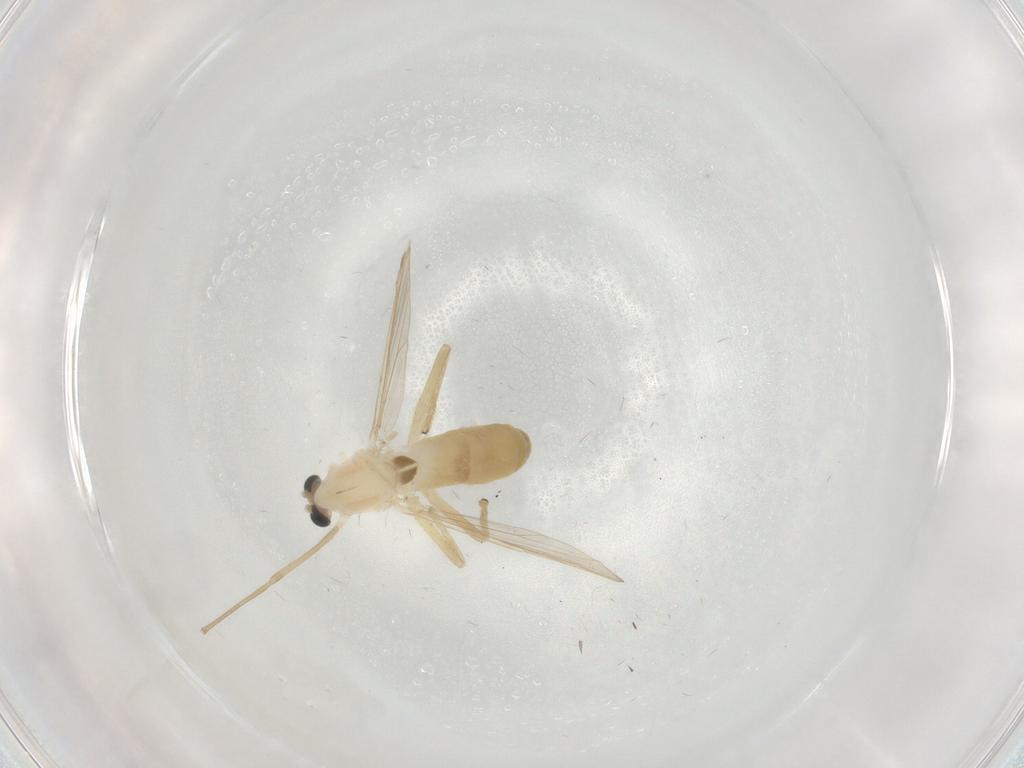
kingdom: Animalia
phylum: Arthropoda
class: Insecta
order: Diptera
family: Chironomidae
